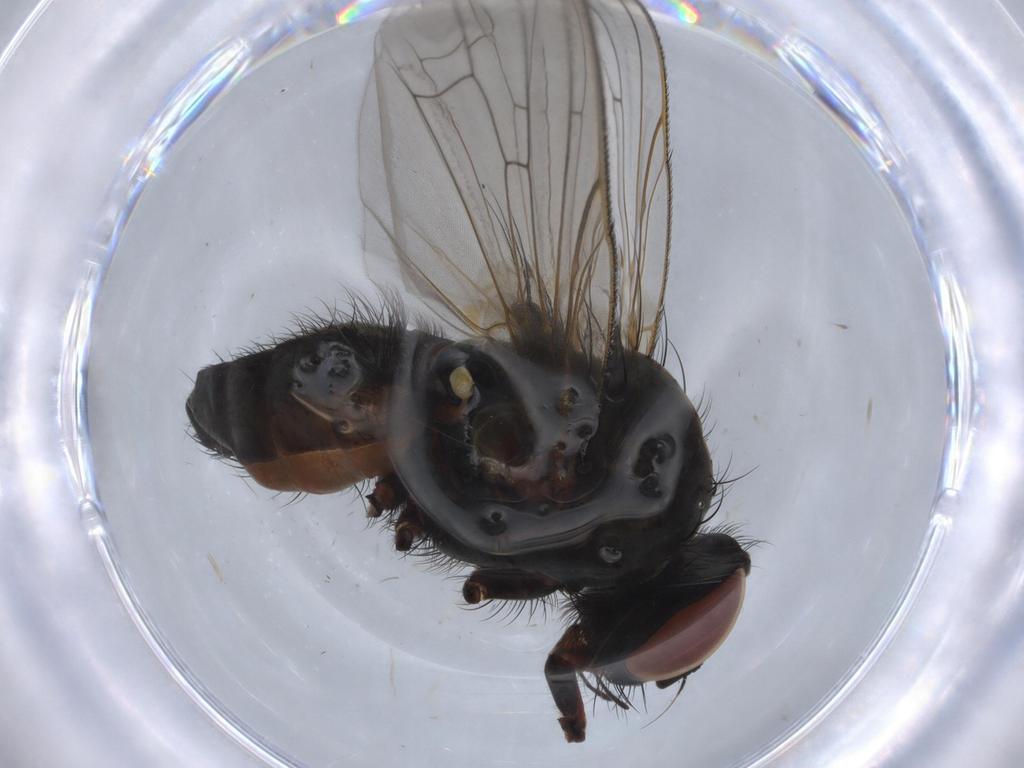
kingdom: Animalia
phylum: Arthropoda
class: Insecta
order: Diptera
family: Anthomyiidae
